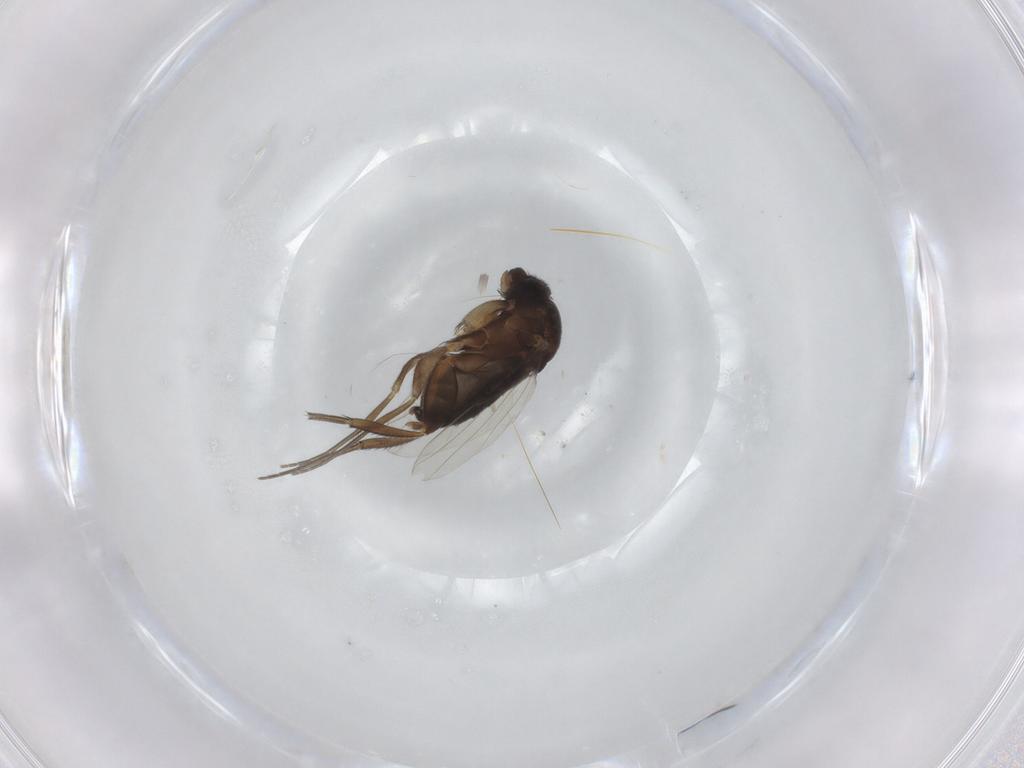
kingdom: Animalia
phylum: Arthropoda
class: Insecta
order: Diptera
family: Phoridae
